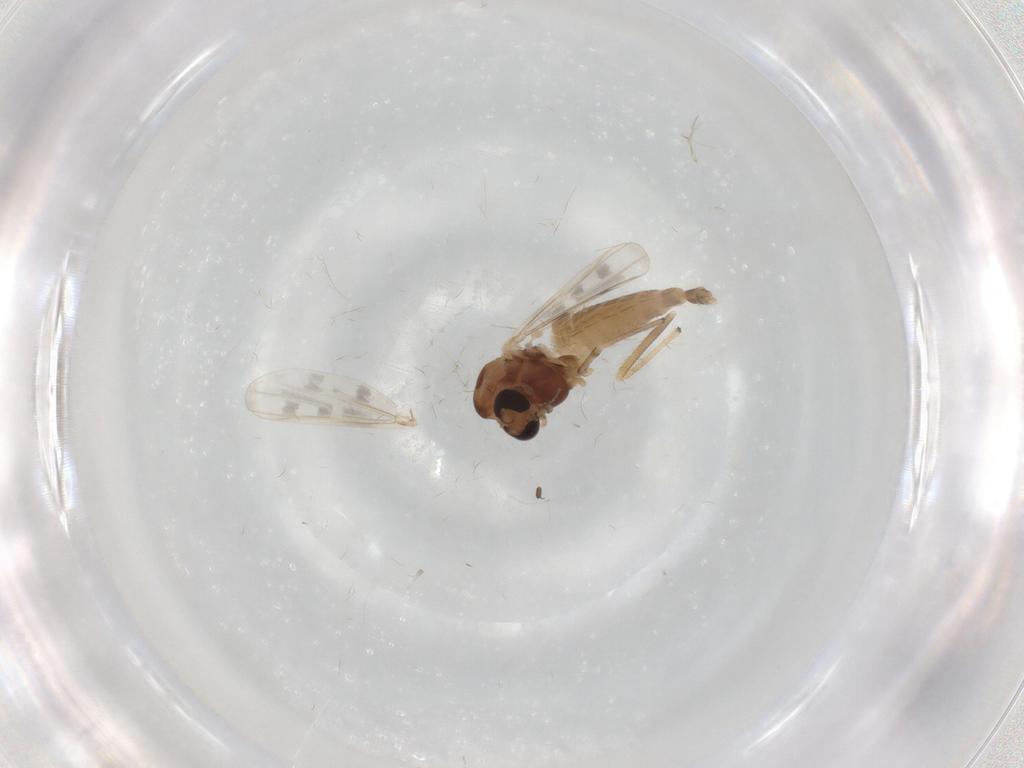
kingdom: Animalia
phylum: Arthropoda
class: Insecta
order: Diptera
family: Chironomidae
